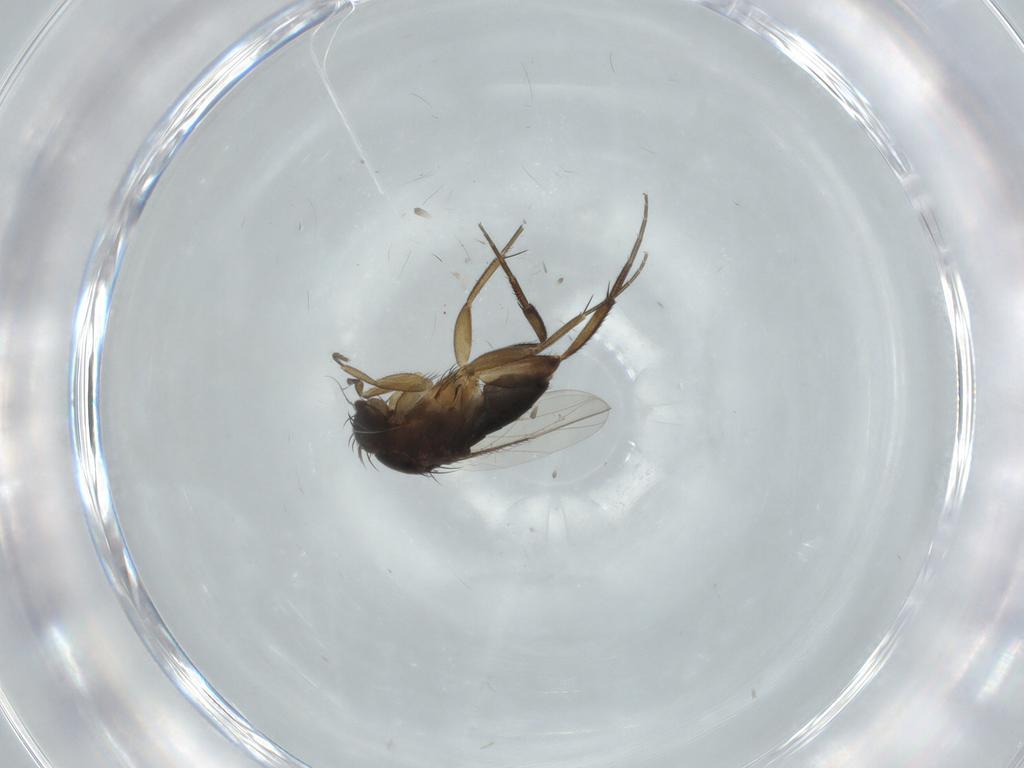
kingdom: Animalia
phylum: Arthropoda
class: Insecta
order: Diptera
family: Phoridae
